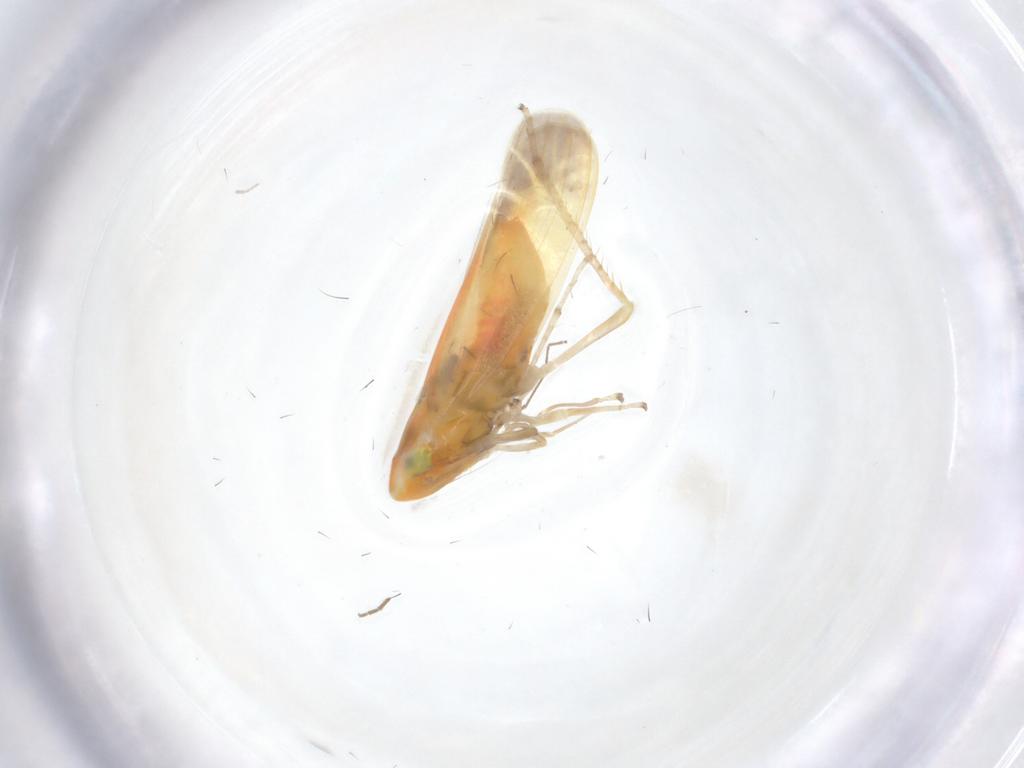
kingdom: Animalia
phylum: Arthropoda
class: Insecta
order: Hemiptera
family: Cicadellidae
